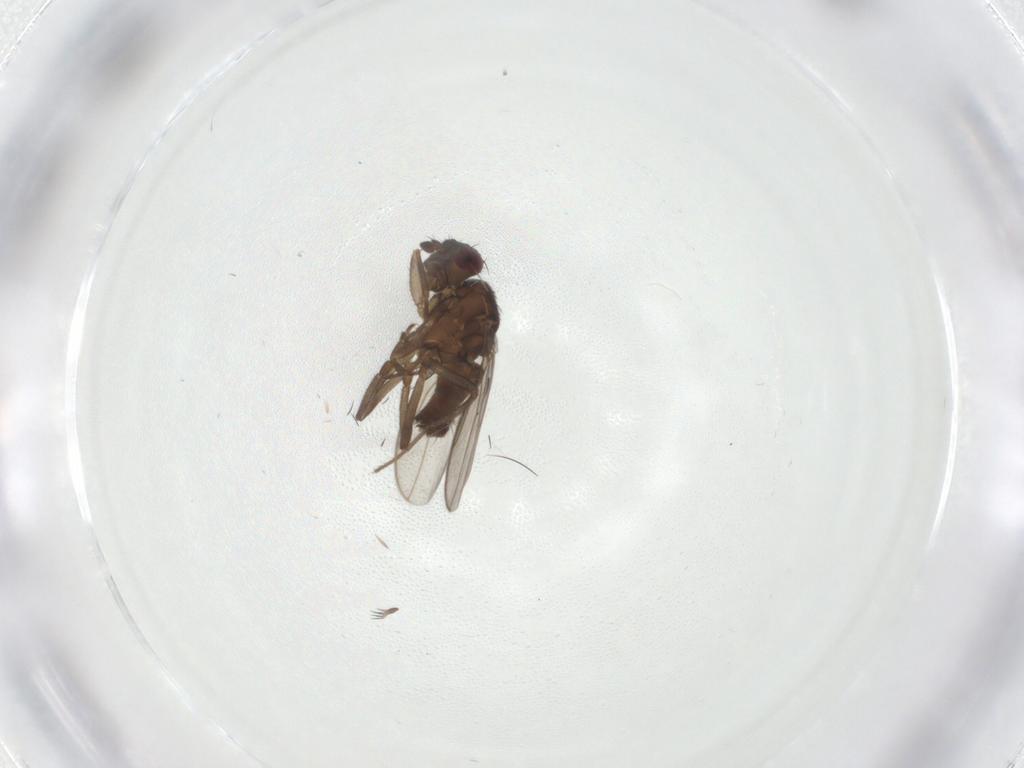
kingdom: Animalia
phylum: Arthropoda
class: Insecta
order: Diptera
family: Sphaeroceridae
